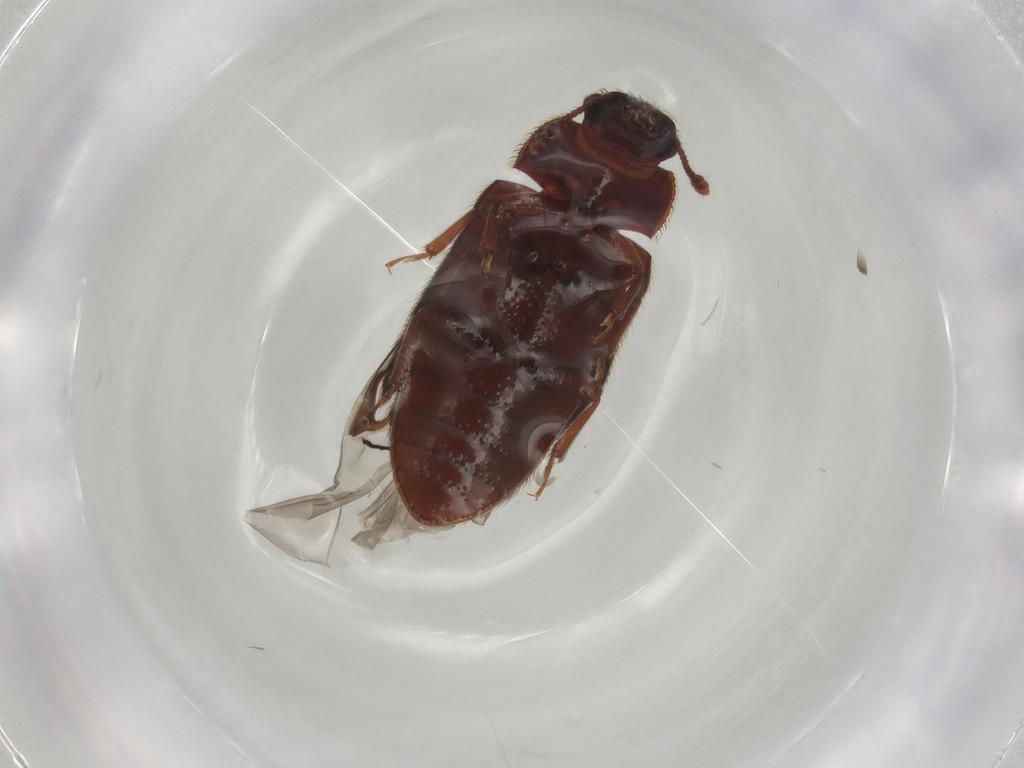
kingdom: Animalia
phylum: Arthropoda
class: Insecta
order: Coleoptera
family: Biphyllidae
